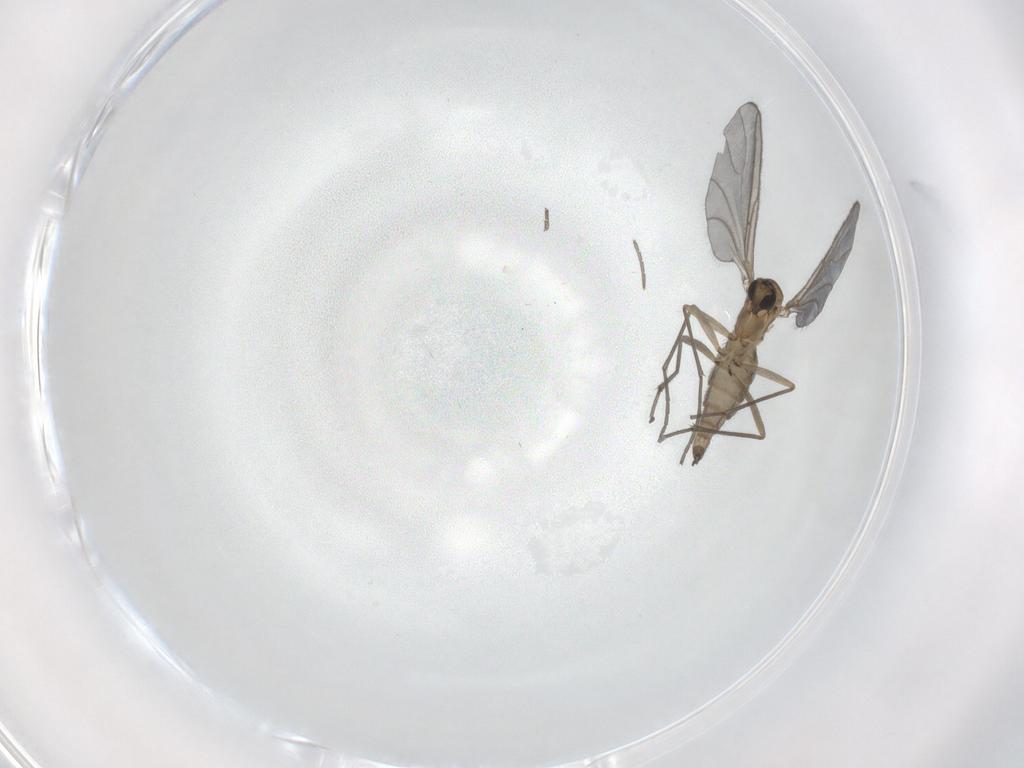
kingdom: Animalia
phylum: Arthropoda
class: Insecta
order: Diptera
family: Sciaridae
